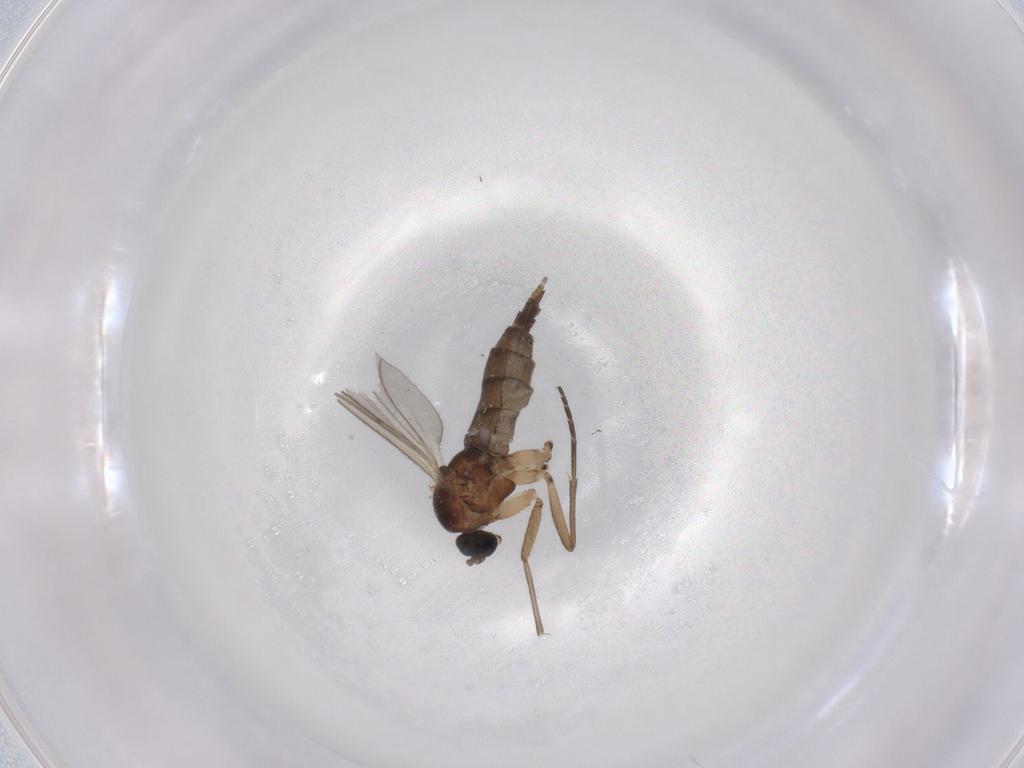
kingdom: Animalia
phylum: Arthropoda
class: Insecta
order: Diptera
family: Sciaridae
